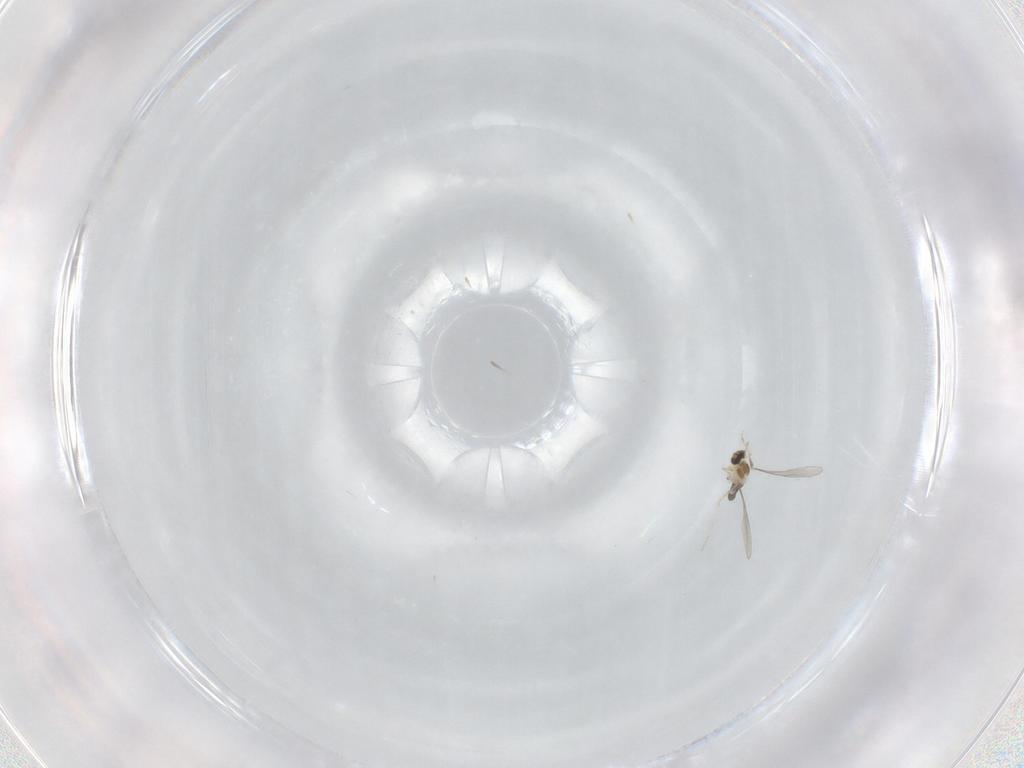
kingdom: Animalia
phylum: Arthropoda
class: Insecta
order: Diptera
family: Cecidomyiidae
